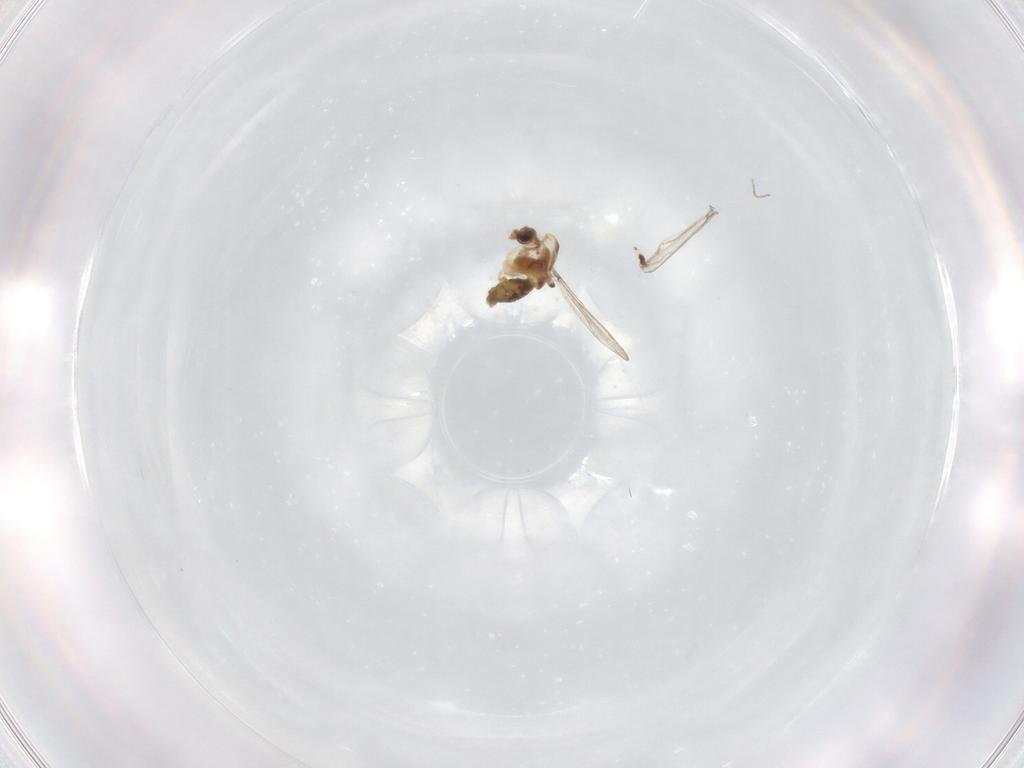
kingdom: Animalia
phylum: Arthropoda
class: Insecta
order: Diptera
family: Chironomidae
